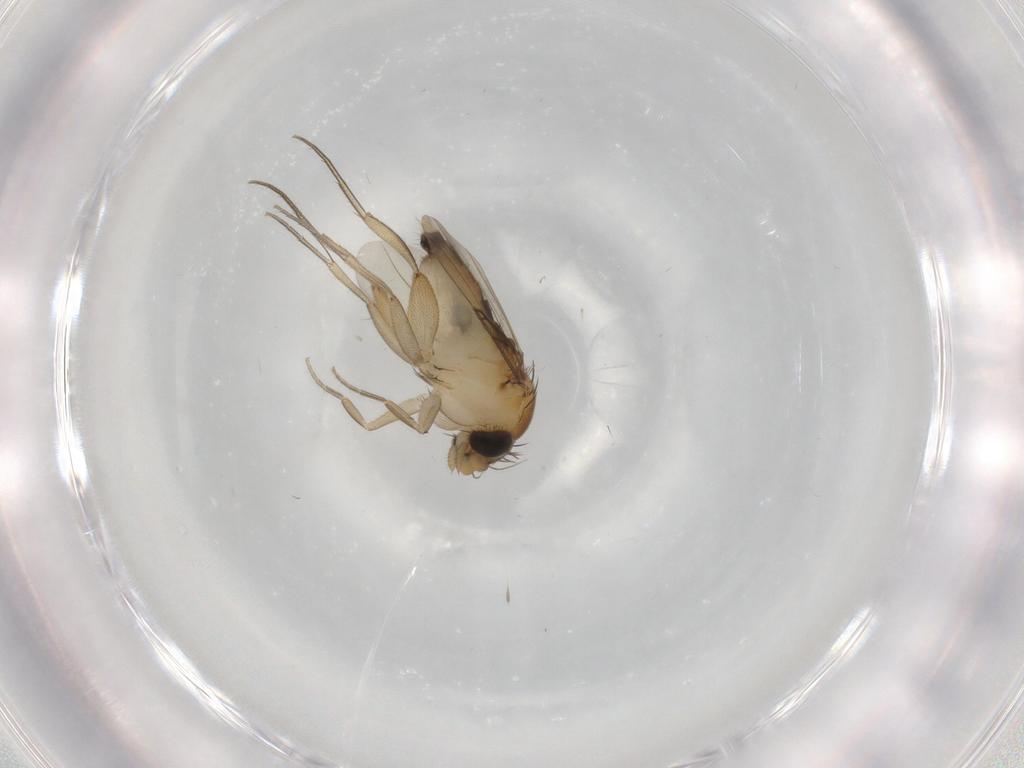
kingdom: Animalia
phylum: Arthropoda
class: Insecta
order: Diptera
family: Phoridae
